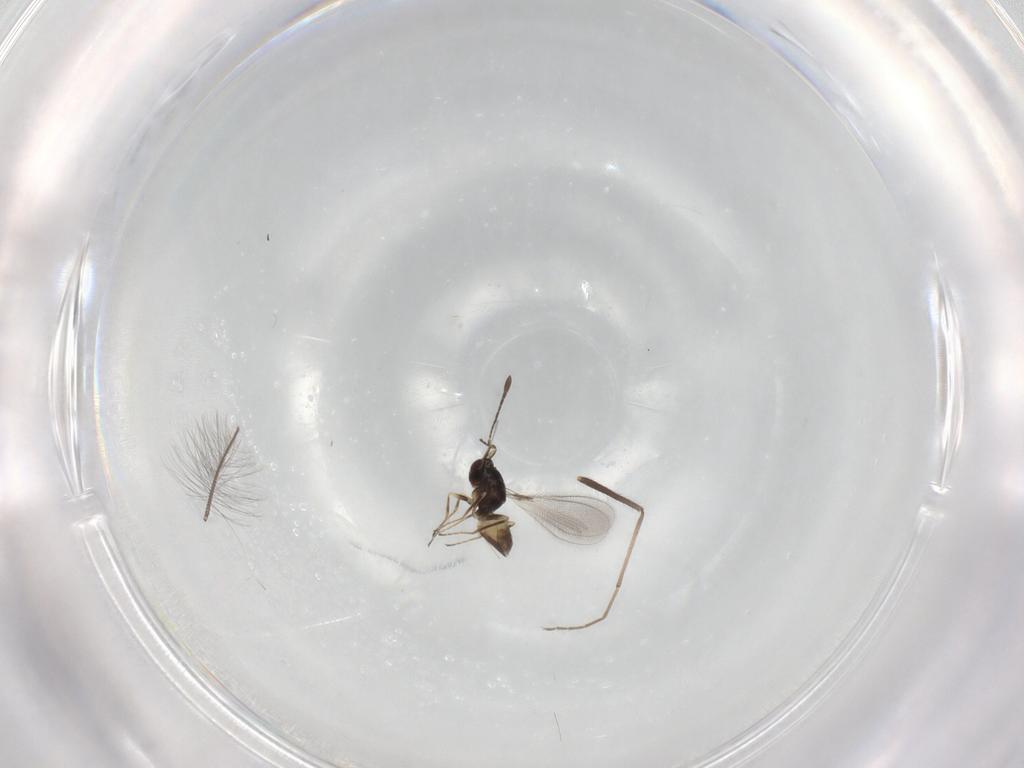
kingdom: Animalia
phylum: Arthropoda
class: Insecta
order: Hymenoptera
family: Mymaridae
